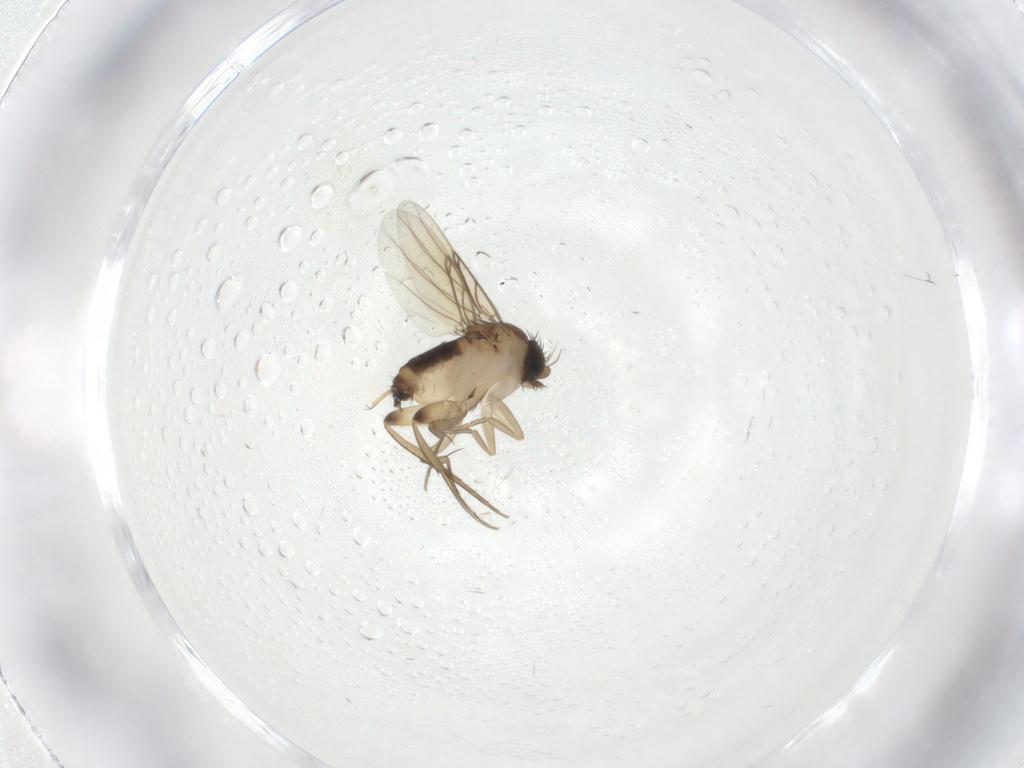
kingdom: Animalia
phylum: Arthropoda
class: Insecta
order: Diptera
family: Phoridae
